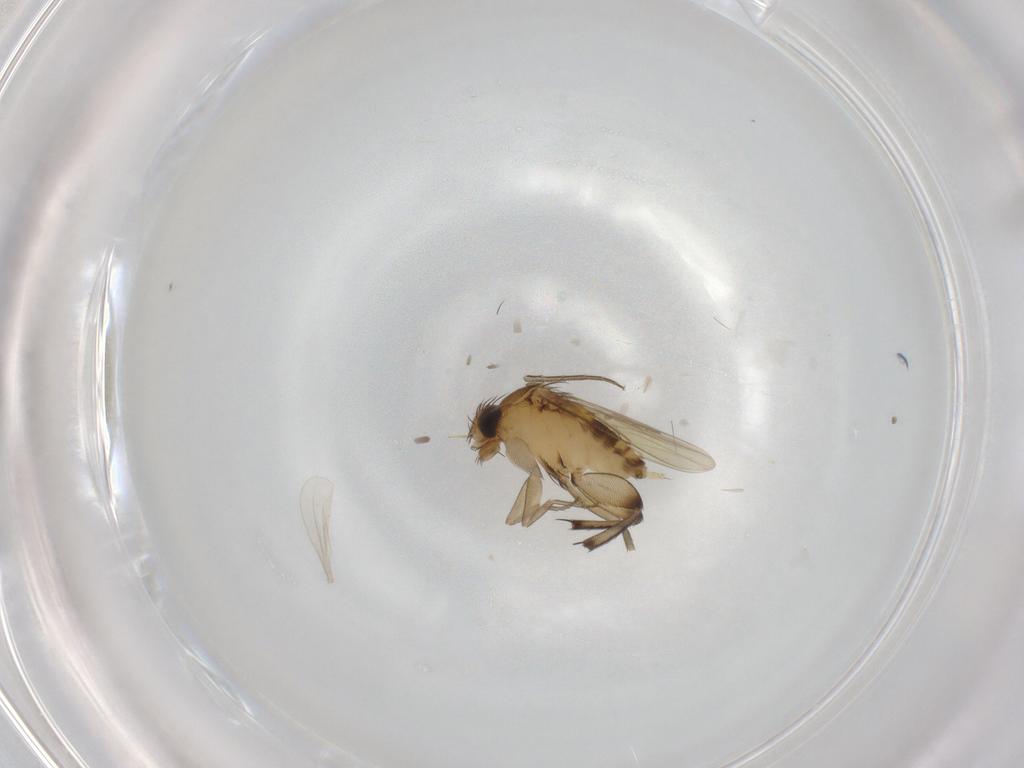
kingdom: Animalia
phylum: Arthropoda
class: Insecta
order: Diptera
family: Phoridae
